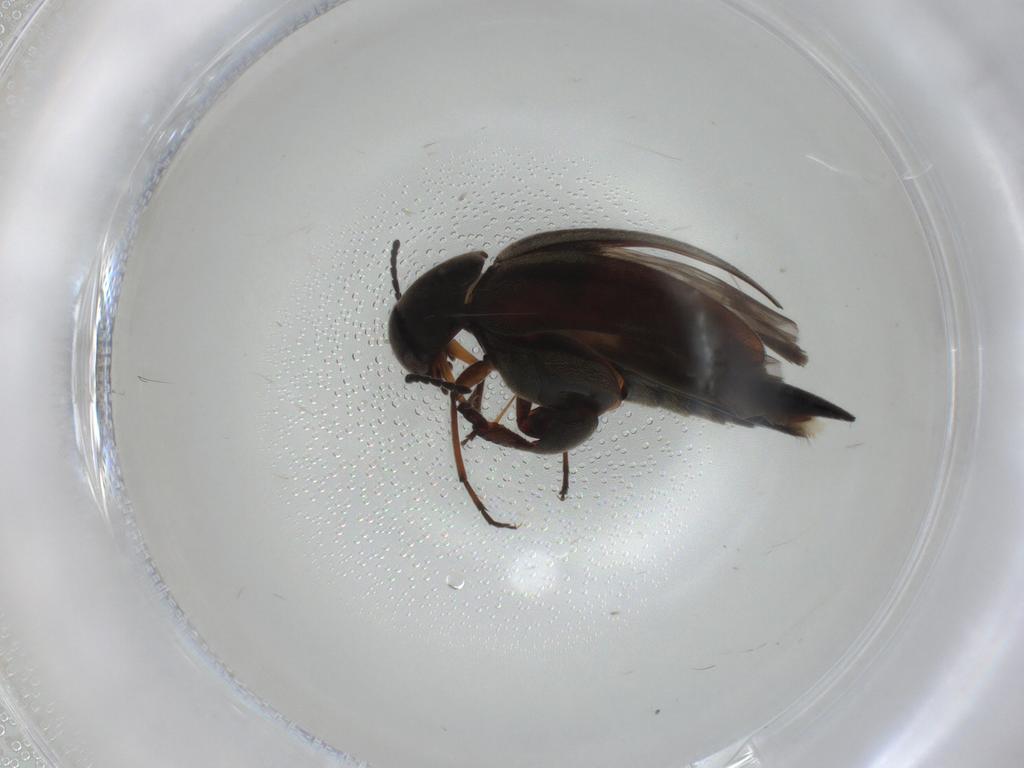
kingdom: Animalia
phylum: Arthropoda
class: Insecta
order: Coleoptera
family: Mordellidae
